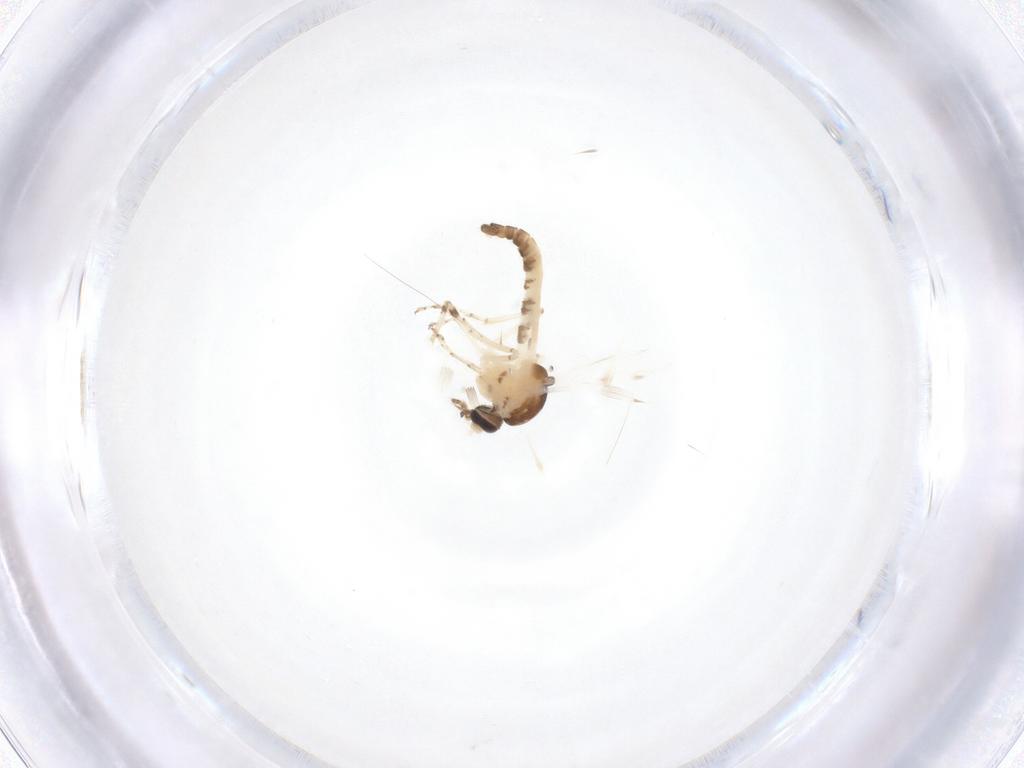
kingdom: Animalia
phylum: Arthropoda
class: Insecta
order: Diptera
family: Ceratopogonidae
